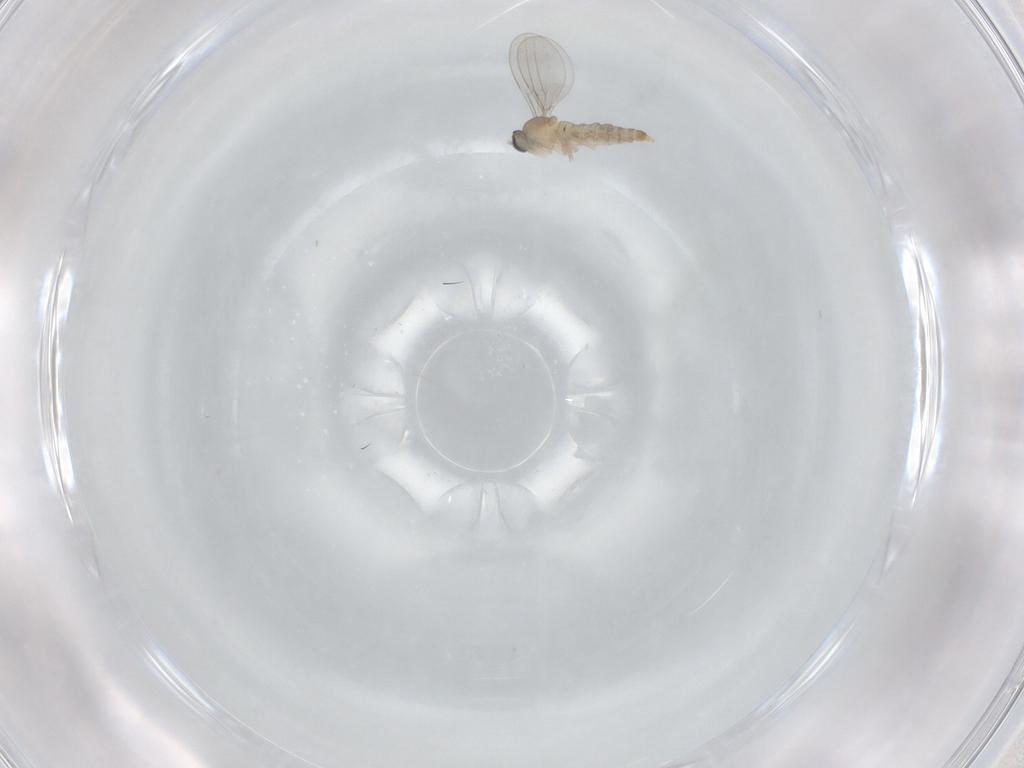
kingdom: Animalia
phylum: Arthropoda
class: Insecta
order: Diptera
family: Cecidomyiidae
